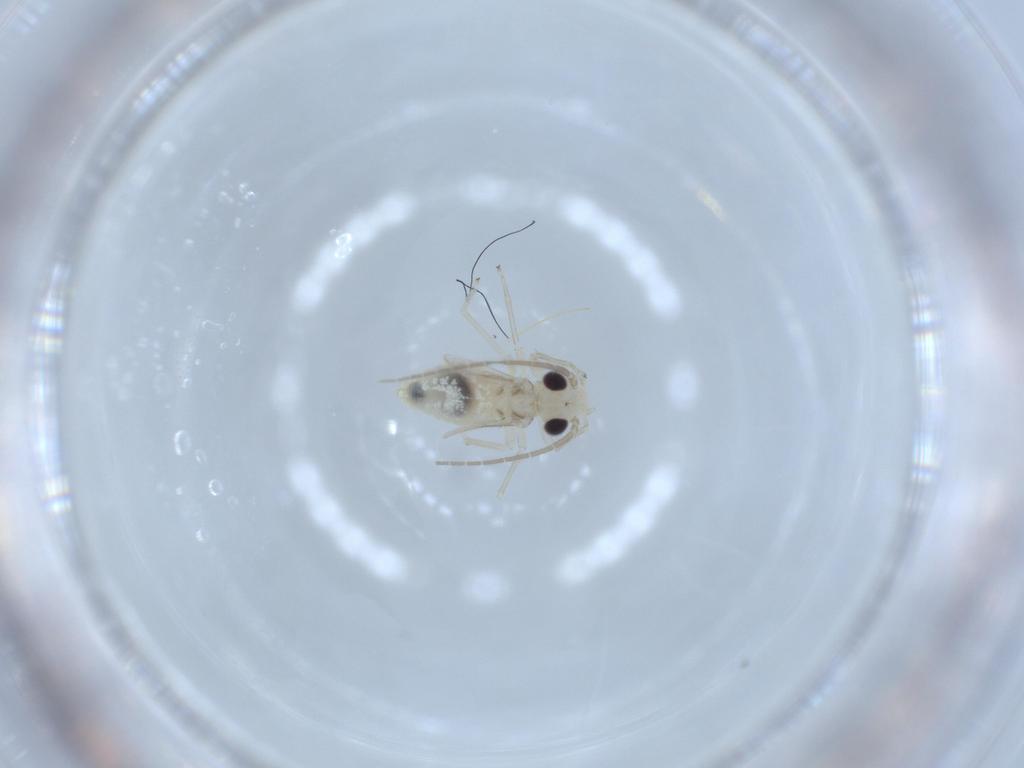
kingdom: Animalia
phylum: Arthropoda
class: Insecta
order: Psocodea
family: Caeciliusidae
